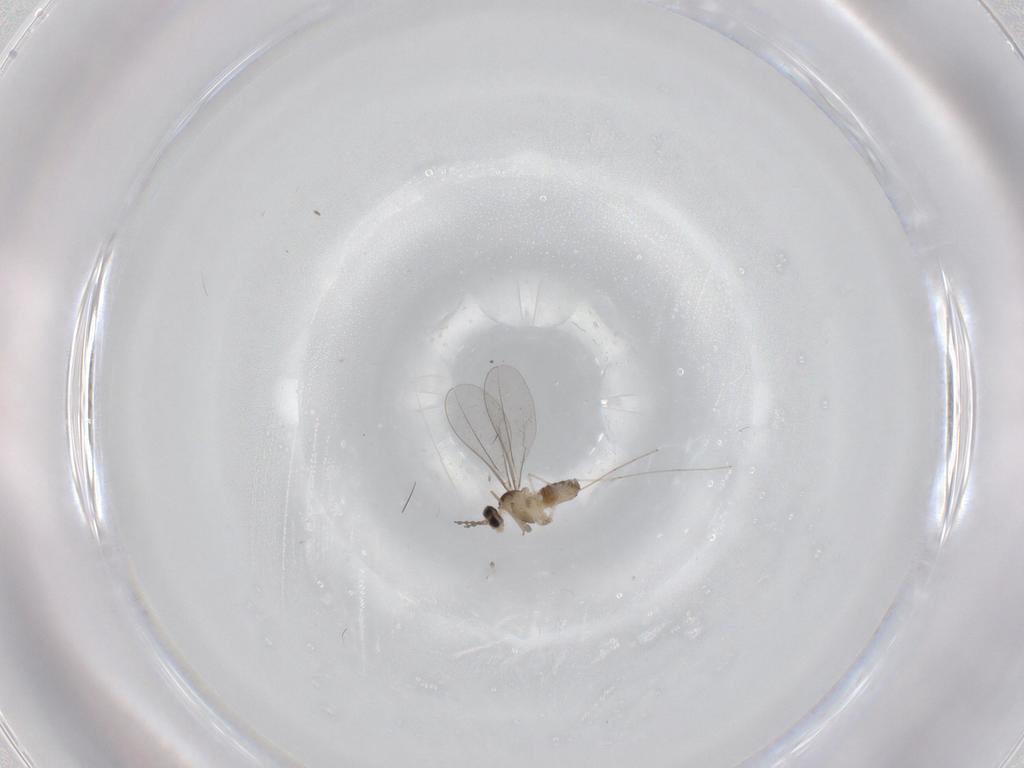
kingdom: Animalia
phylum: Arthropoda
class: Insecta
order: Diptera
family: Cecidomyiidae
